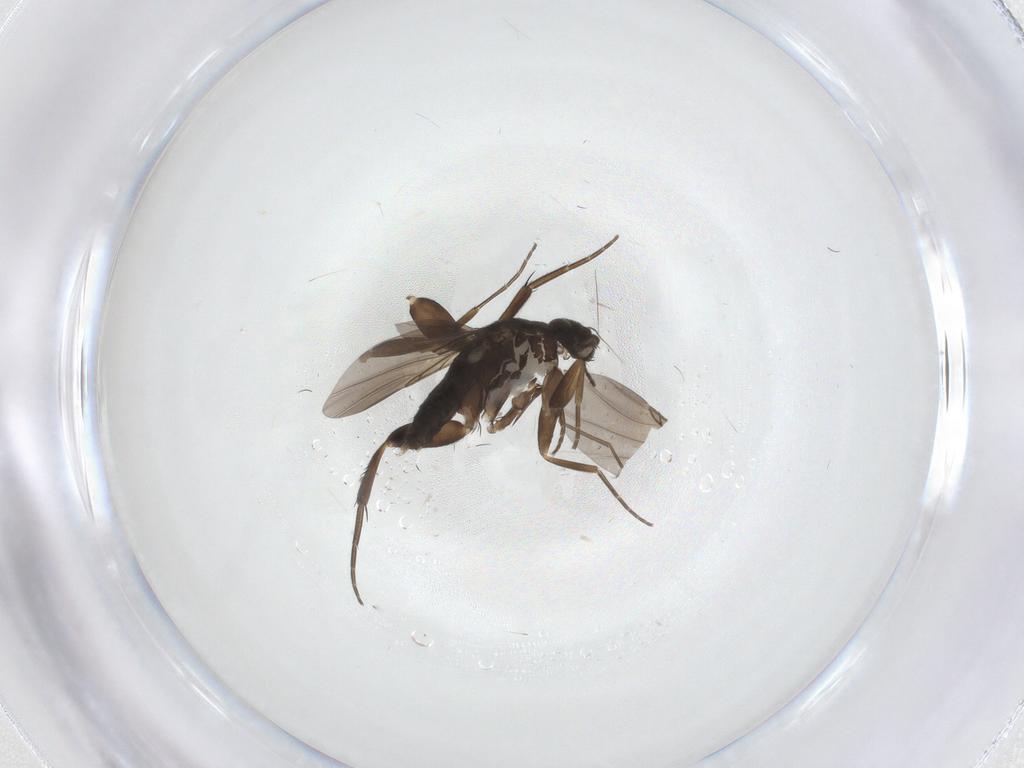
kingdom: Animalia
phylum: Arthropoda
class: Insecta
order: Diptera
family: Phoridae
